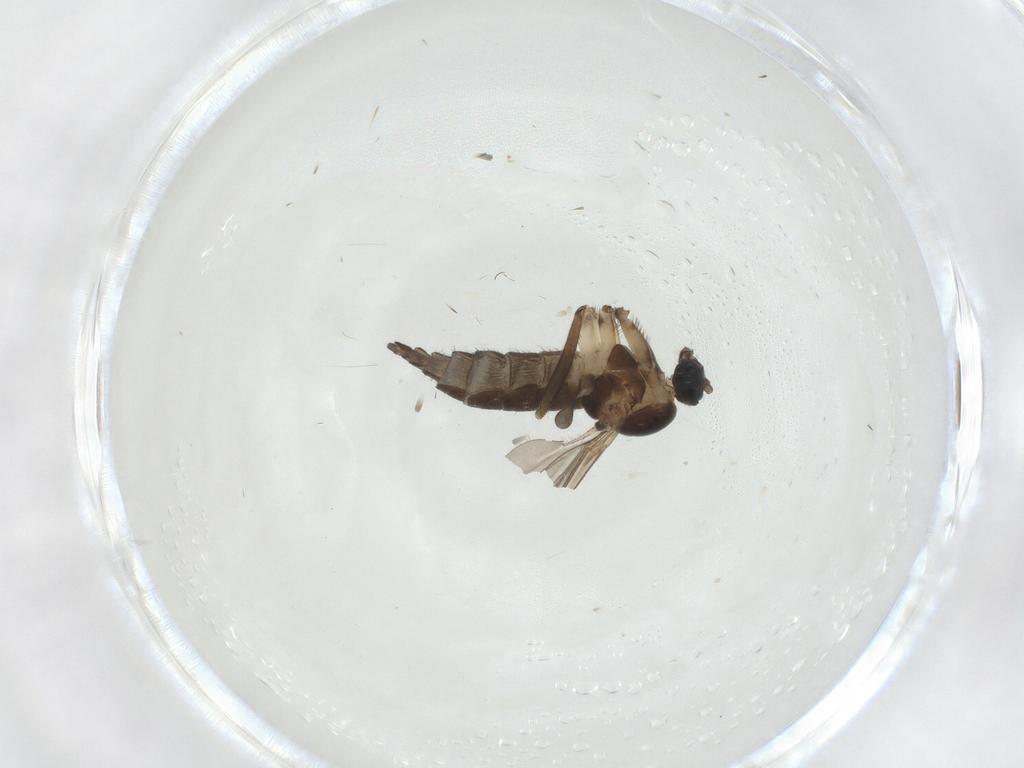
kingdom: Animalia
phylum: Arthropoda
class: Insecta
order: Diptera
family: Sciaridae
